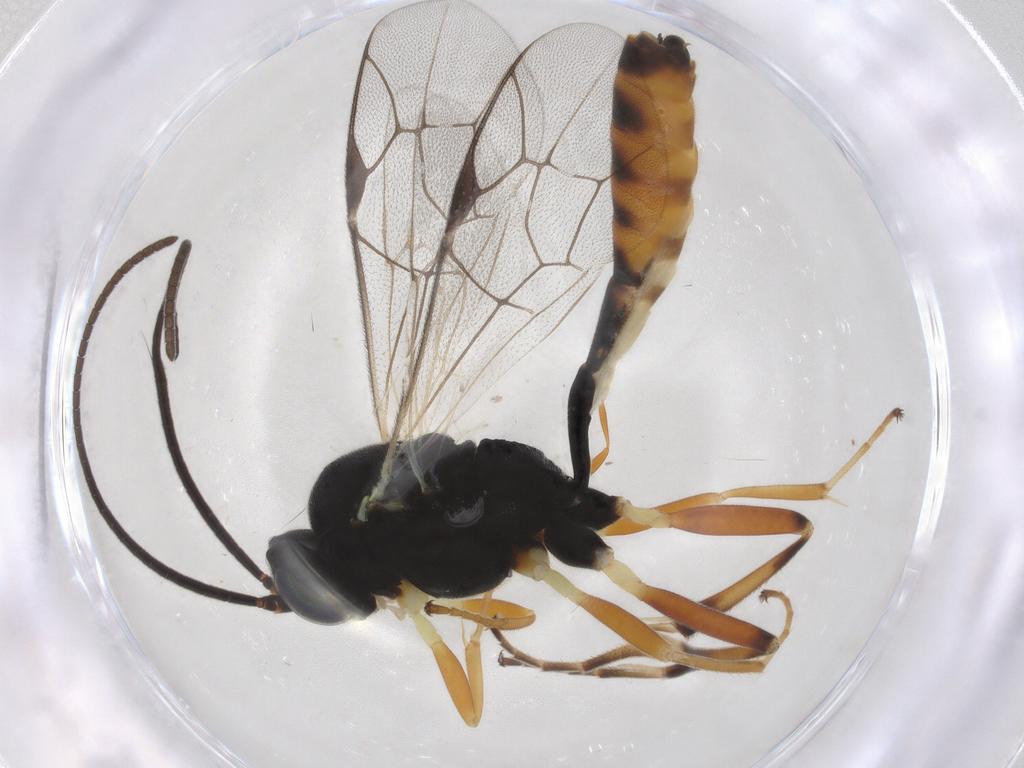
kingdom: Animalia
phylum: Arthropoda
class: Insecta
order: Hymenoptera
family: Ichneumonidae
